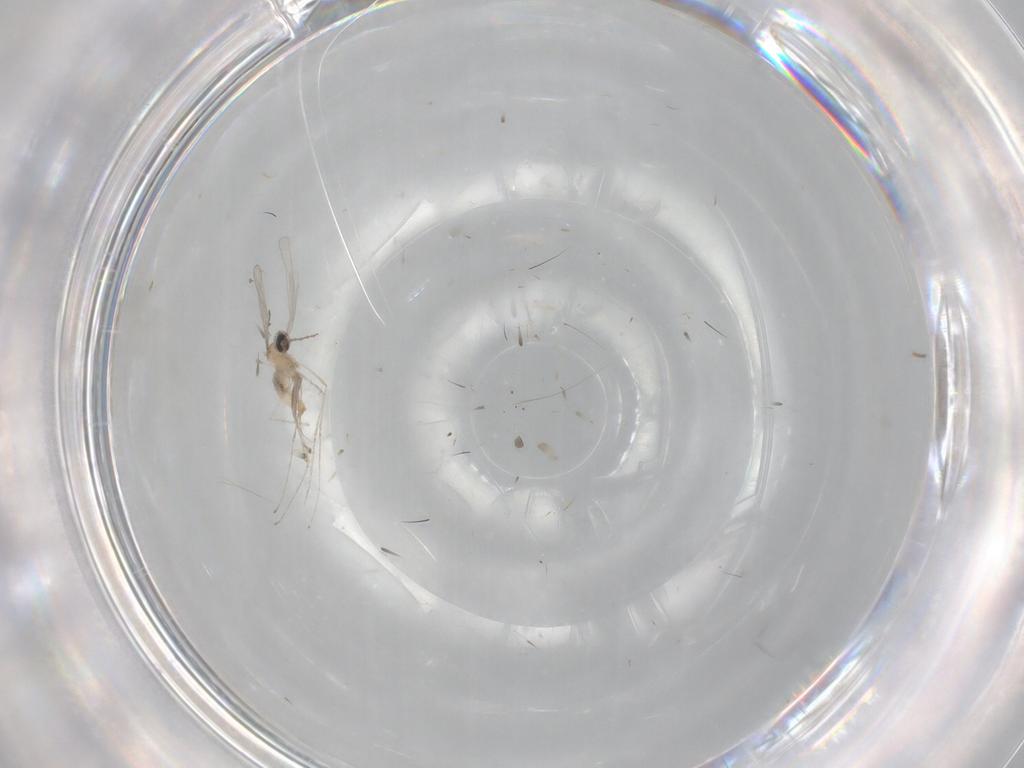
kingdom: Animalia
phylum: Arthropoda
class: Insecta
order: Diptera
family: Cecidomyiidae
